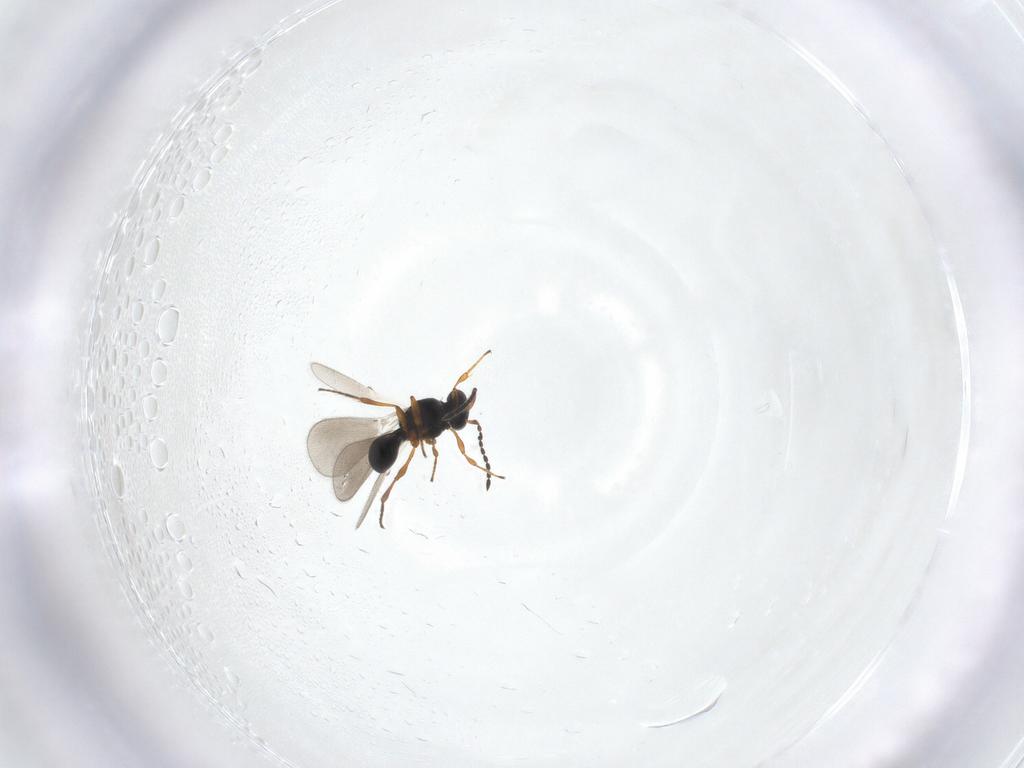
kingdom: Animalia
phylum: Arthropoda
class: Insecta
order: Hymenoptera
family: Platygastridae
